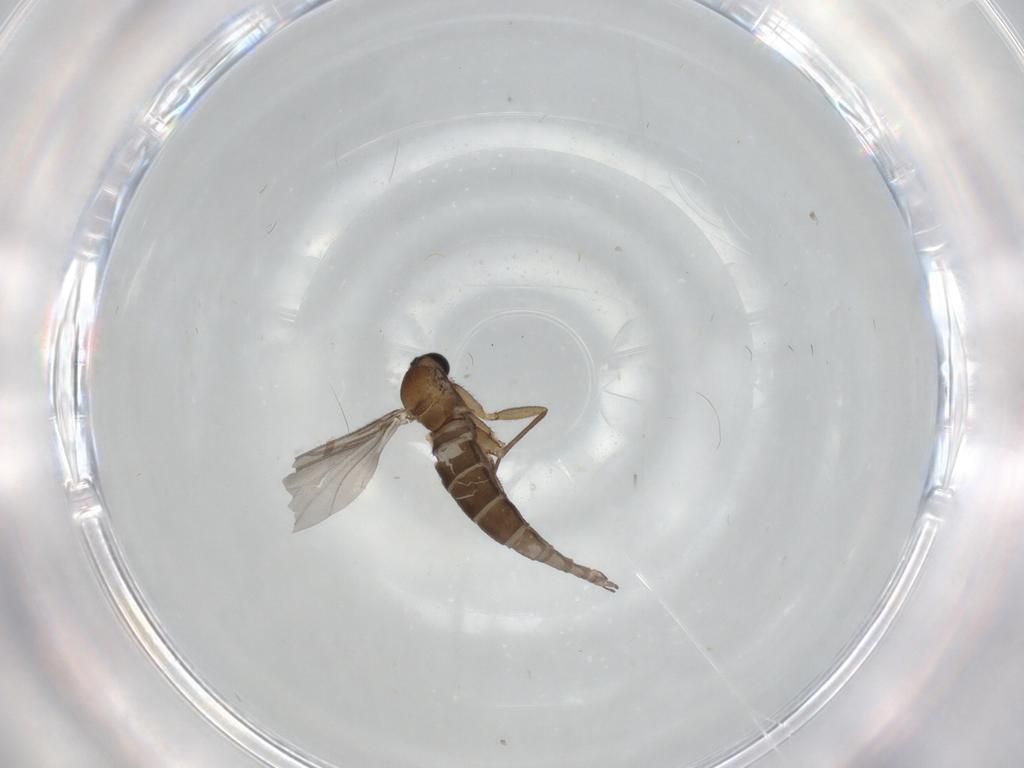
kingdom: Animalia
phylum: Arthropoda
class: Insecta
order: Diptera
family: Sciaridae
